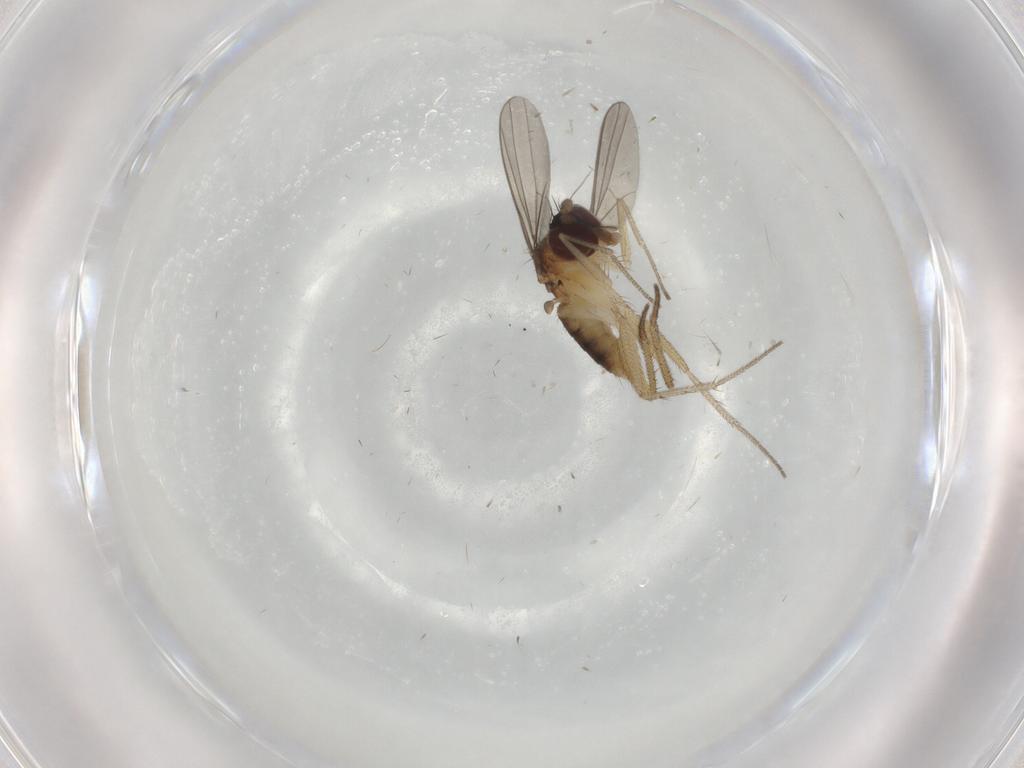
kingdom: Animalia
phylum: Arthropoda
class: Insecta
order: Diptera
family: Dolichopodidae
